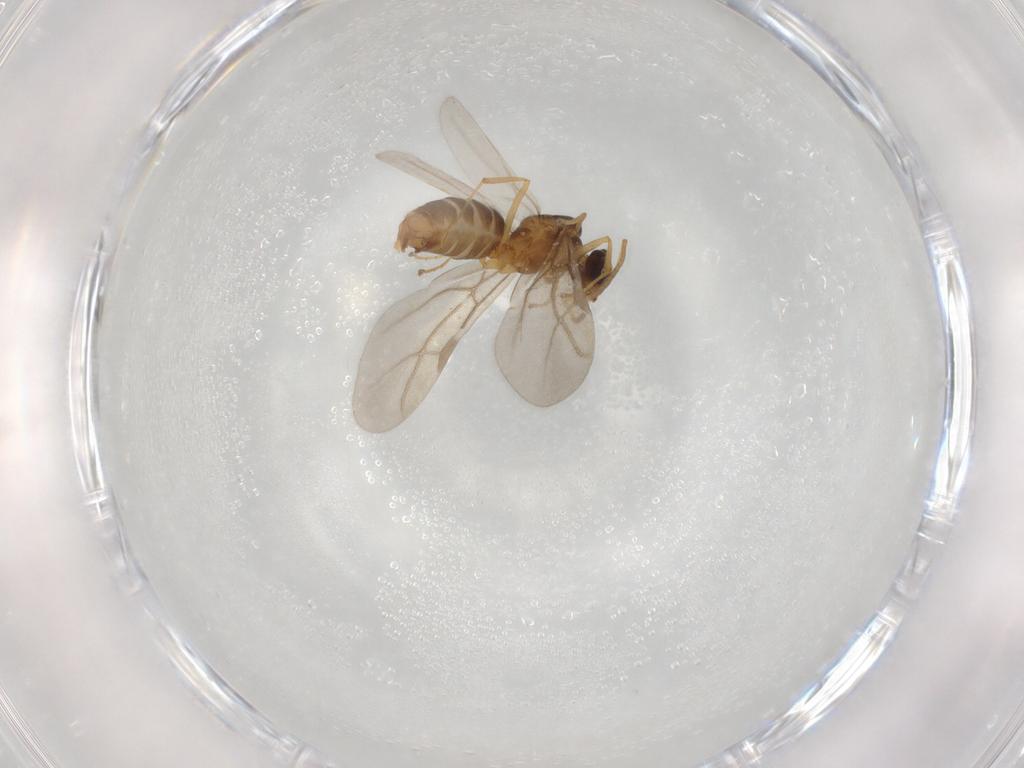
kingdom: Animalia
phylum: Arthropoda
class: Insecta
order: Hymenoptera
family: Formicidae
